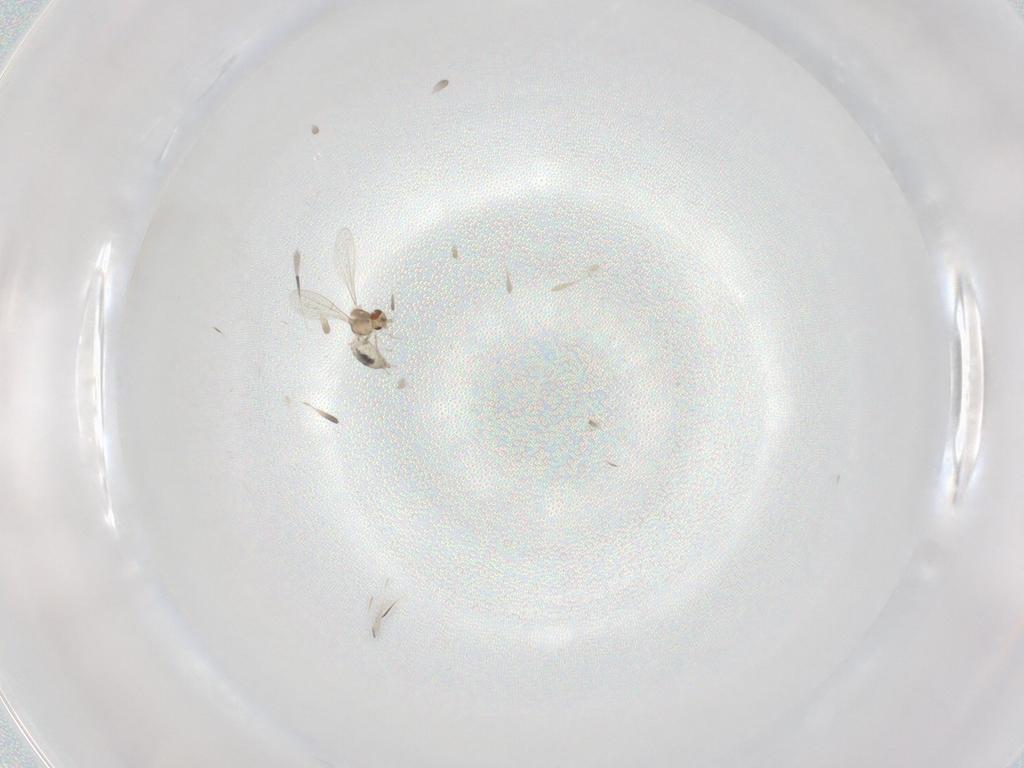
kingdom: Animalia
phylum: Arthropoda
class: Insecta
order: Diptera
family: Cecidomyiidae
